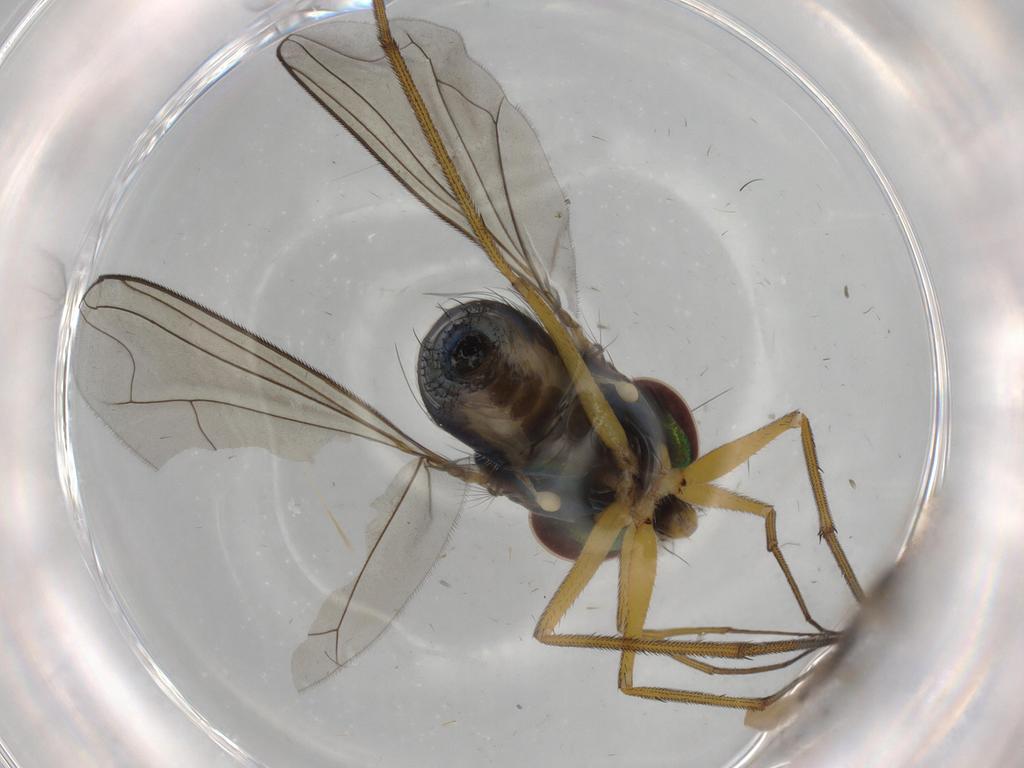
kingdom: Animalia
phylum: Arthropoda
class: Insecta
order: Diptera
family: Dolichopodidae
